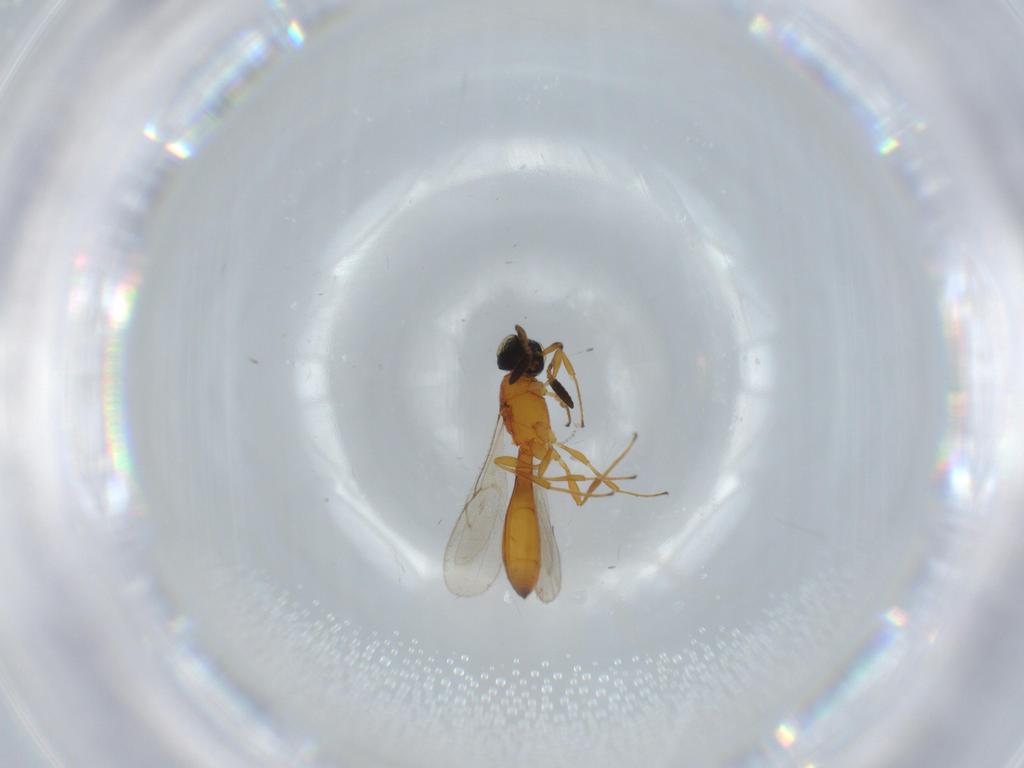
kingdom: Animalia
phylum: Arthropoda
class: Insecta
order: Hymenoptera
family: Scelionidae
